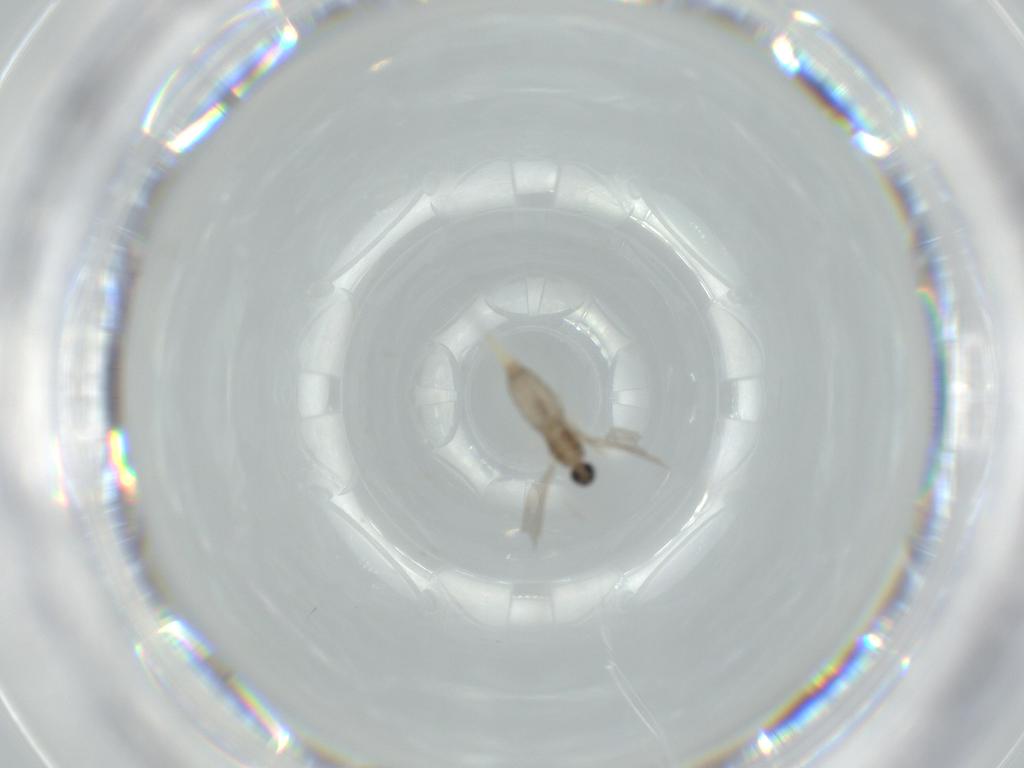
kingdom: Animalia
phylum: Arthropoda
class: Insecta
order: Diptera
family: Cecidomyiidae
